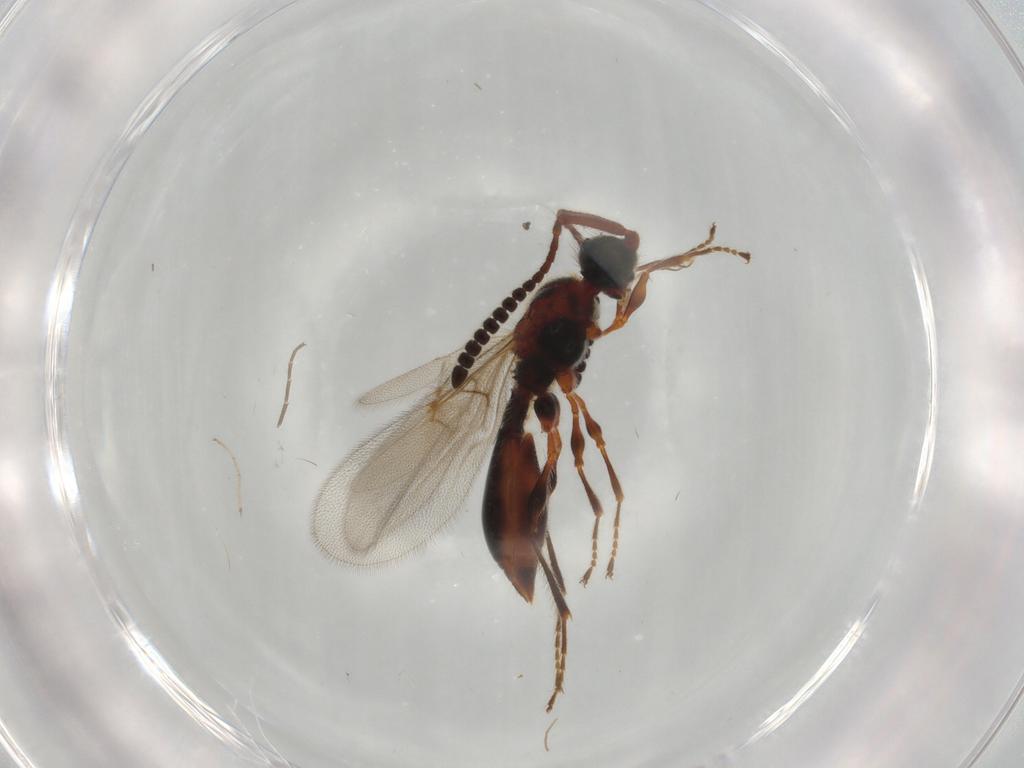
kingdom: Animalia
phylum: Arthropoda
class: Insecta
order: Hymenoptera
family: Diapriidae
